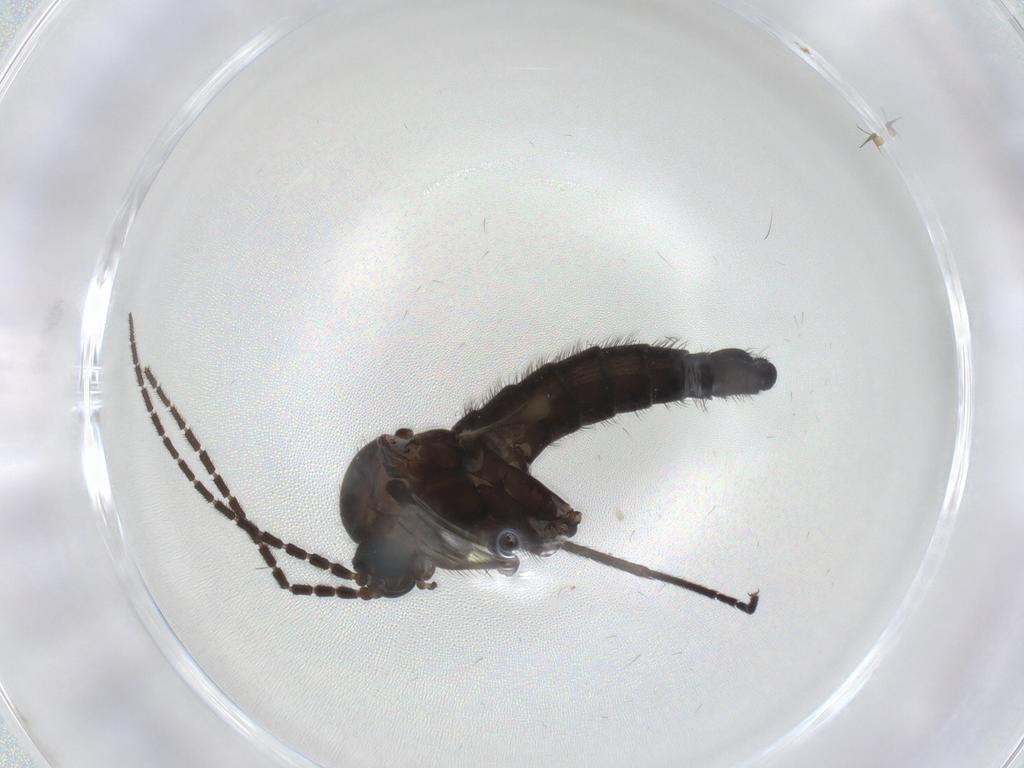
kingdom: Animalia
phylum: Arthropoda
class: Insecta
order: Diptera
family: Sciaridae
